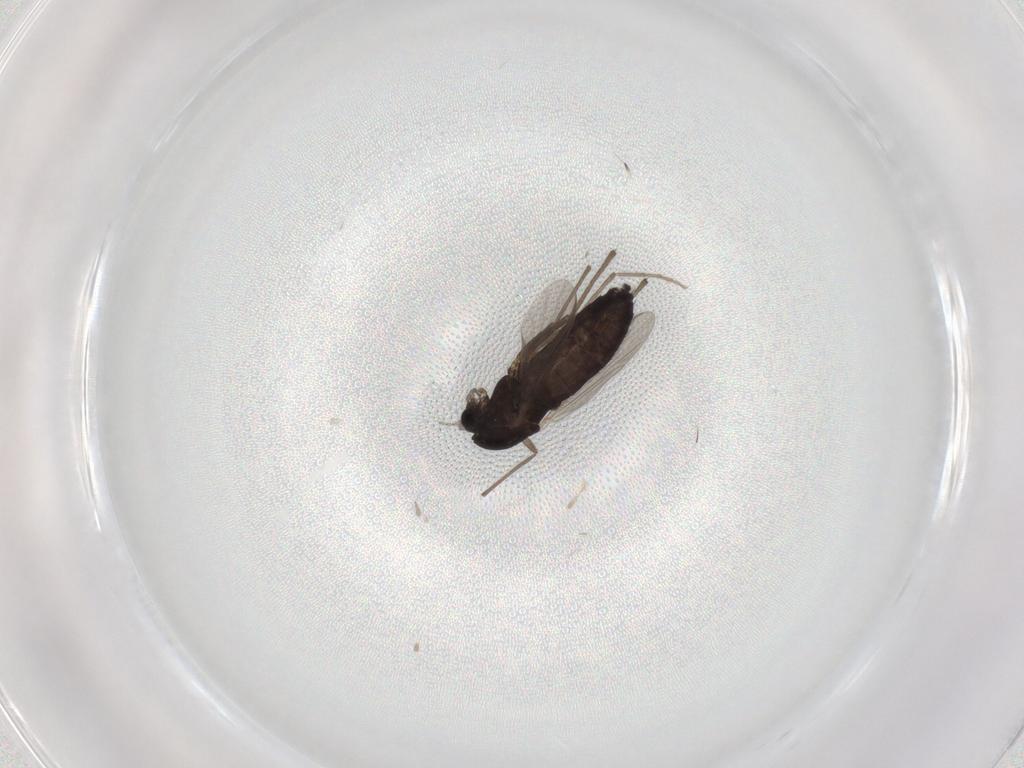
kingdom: Animalia
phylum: Arthropoda
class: Insecta
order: Diptera
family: Chironomidae
